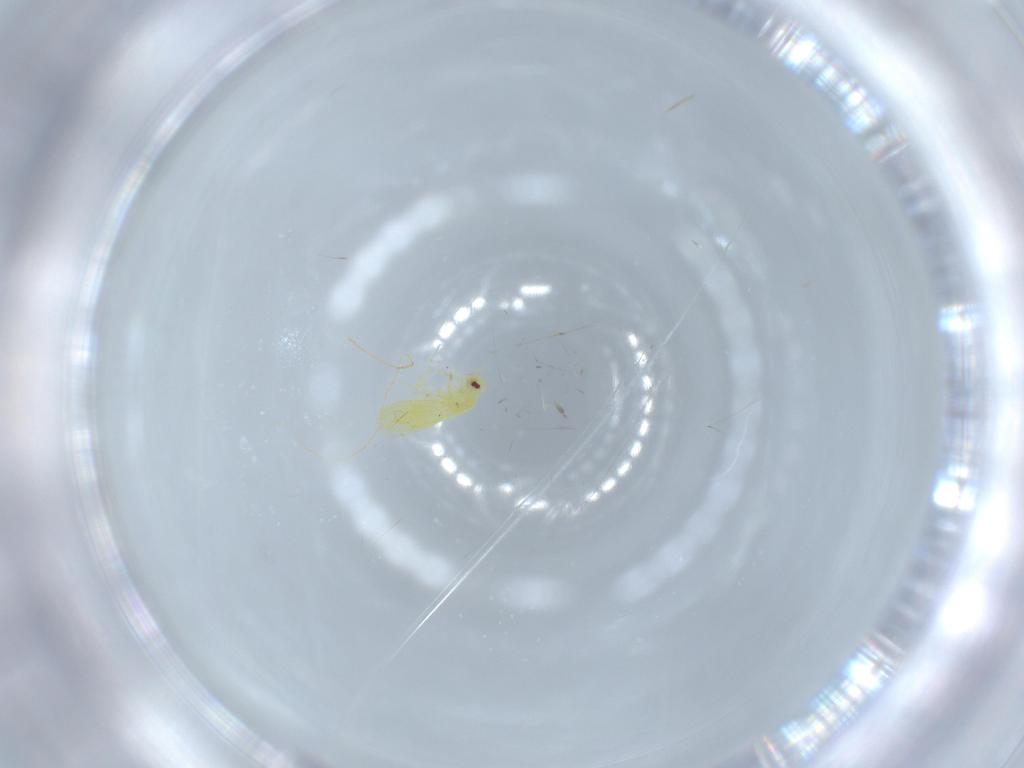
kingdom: Animalia
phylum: Arthropoda
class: Insecta
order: Hemiptera
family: Aleyrodidae
